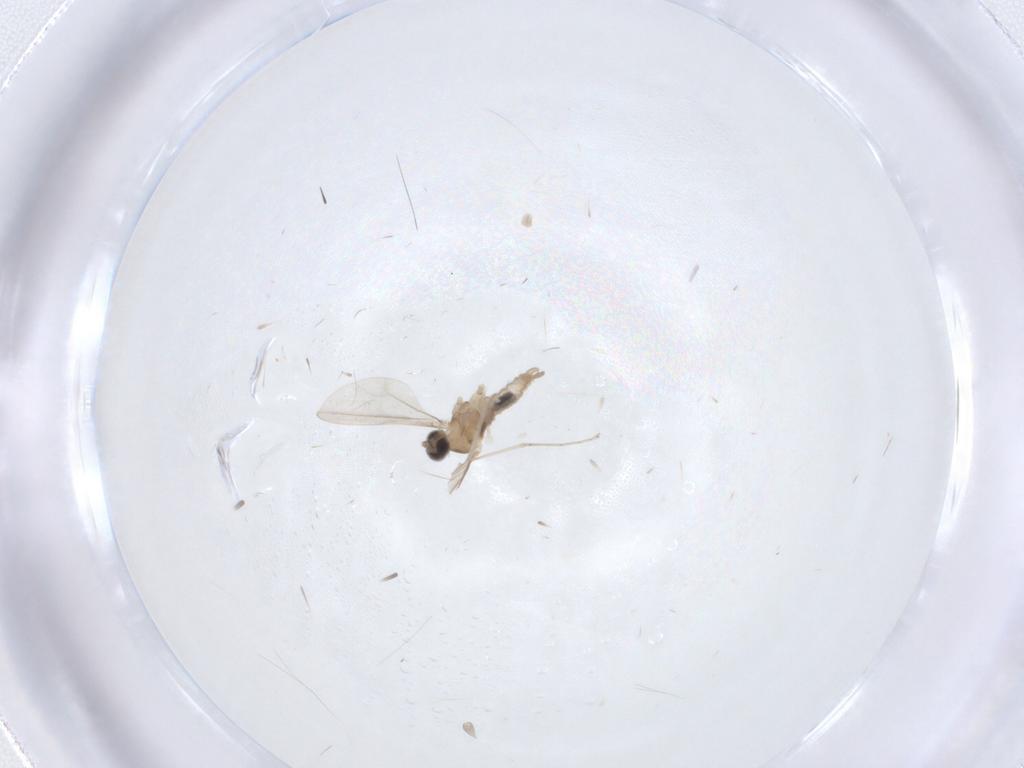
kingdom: Animalia
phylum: Arthropoda
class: Insecta
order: Diptera
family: Cecidomyiidae
